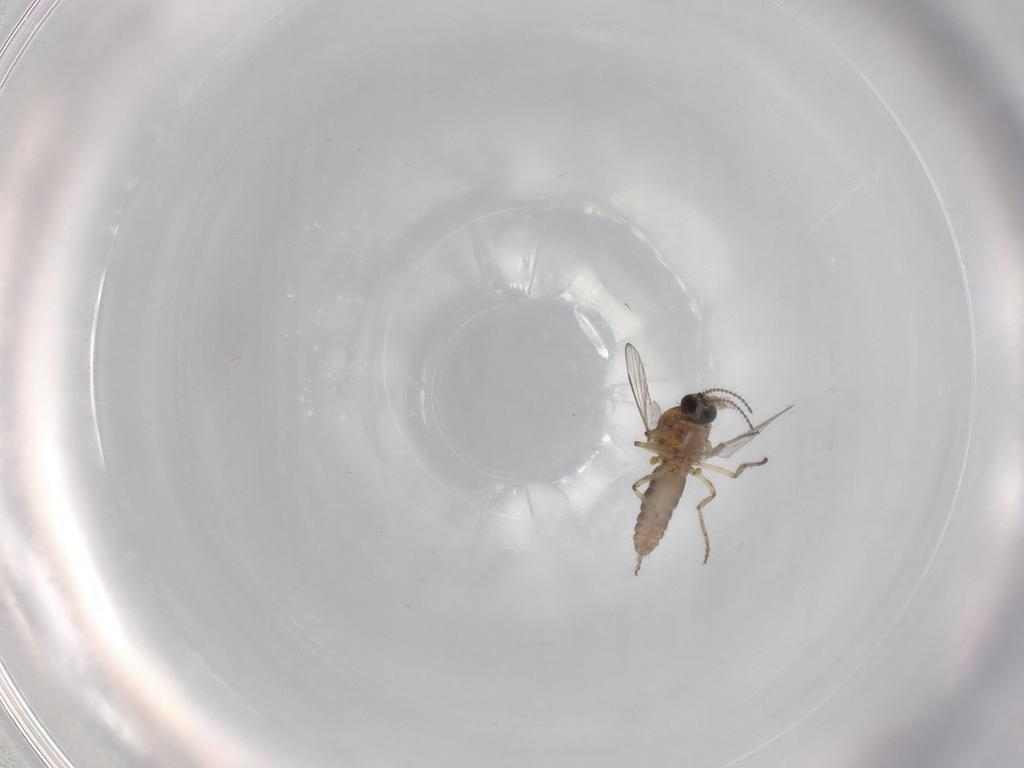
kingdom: Animalia
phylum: Arthropoda
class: Insecta
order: Diptera
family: Ceratopogonidae
